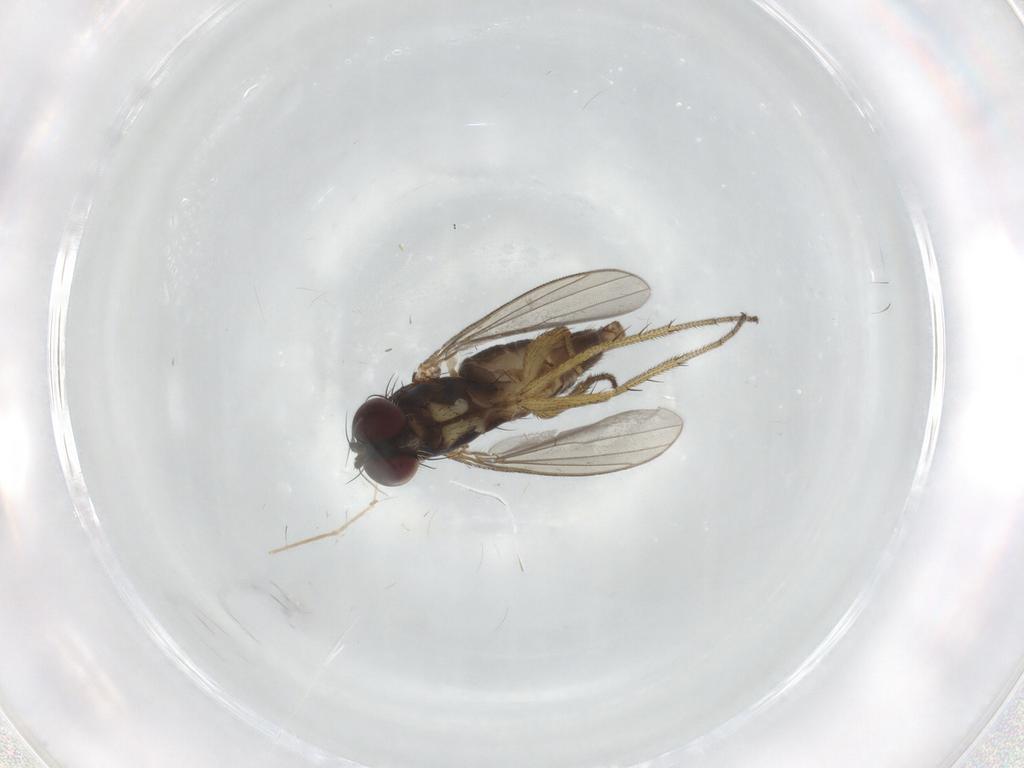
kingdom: Animalia
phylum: Arthropoda
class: Insecta
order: Diptera
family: Dolichopodidae
